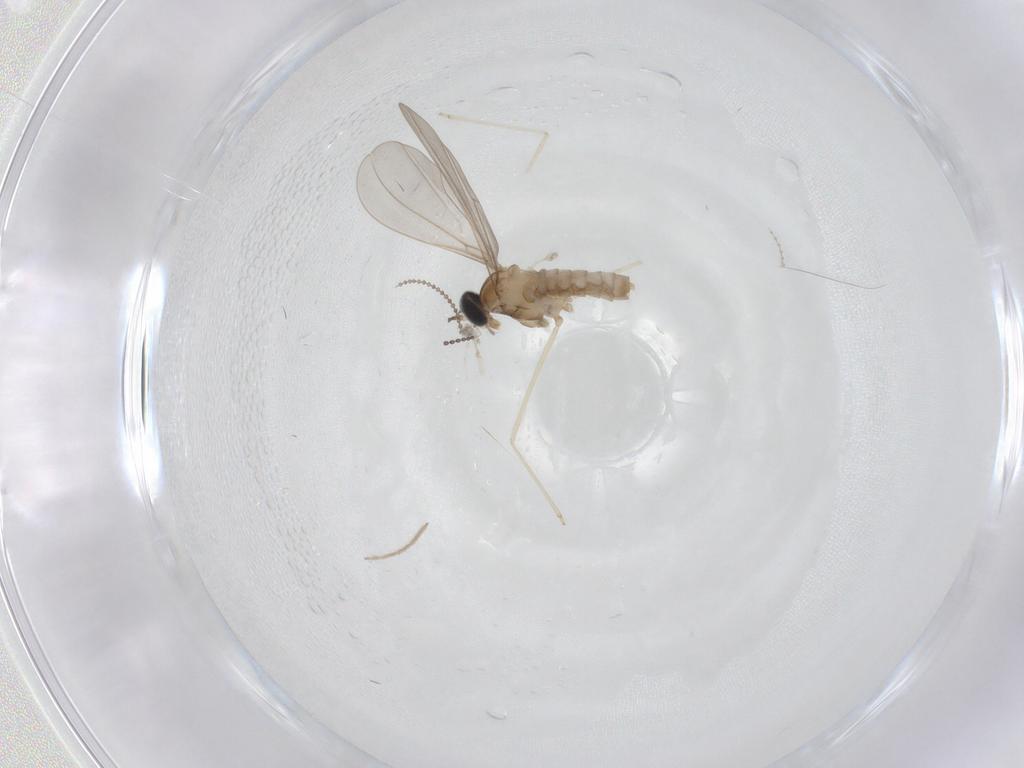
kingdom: Animalia
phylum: Arthropoda
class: Insecta
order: Diptera
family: Cecidomyiidae
